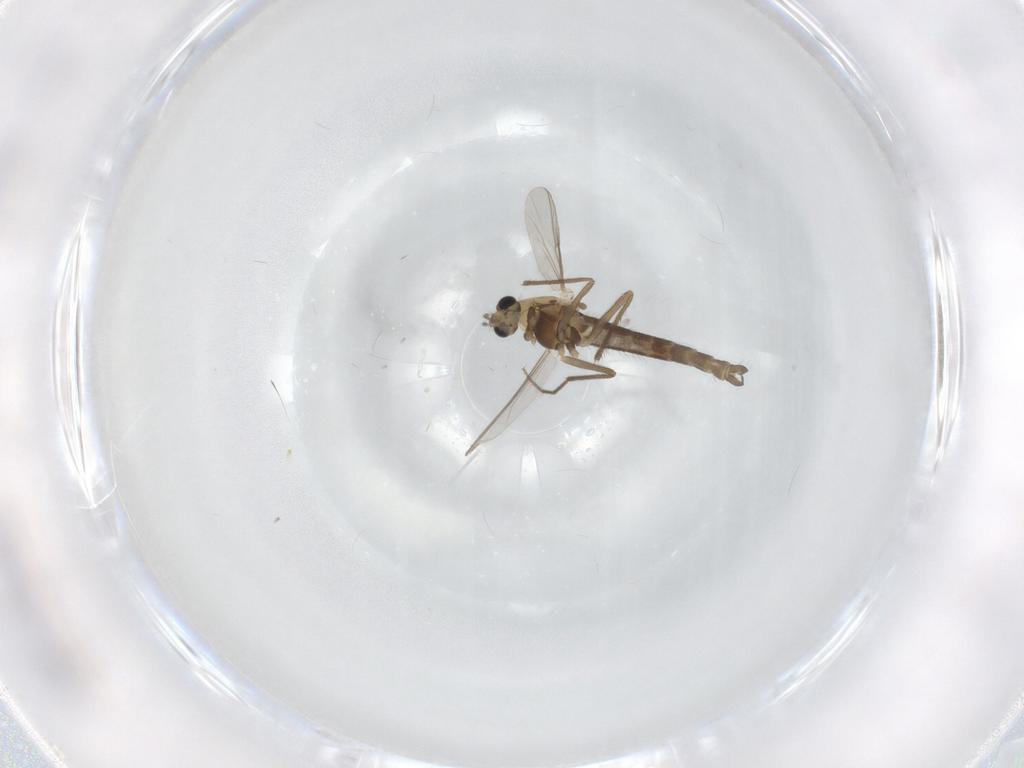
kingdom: Animalia
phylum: Arthropoda
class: Insecta
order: Diptera
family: Chironomidae
